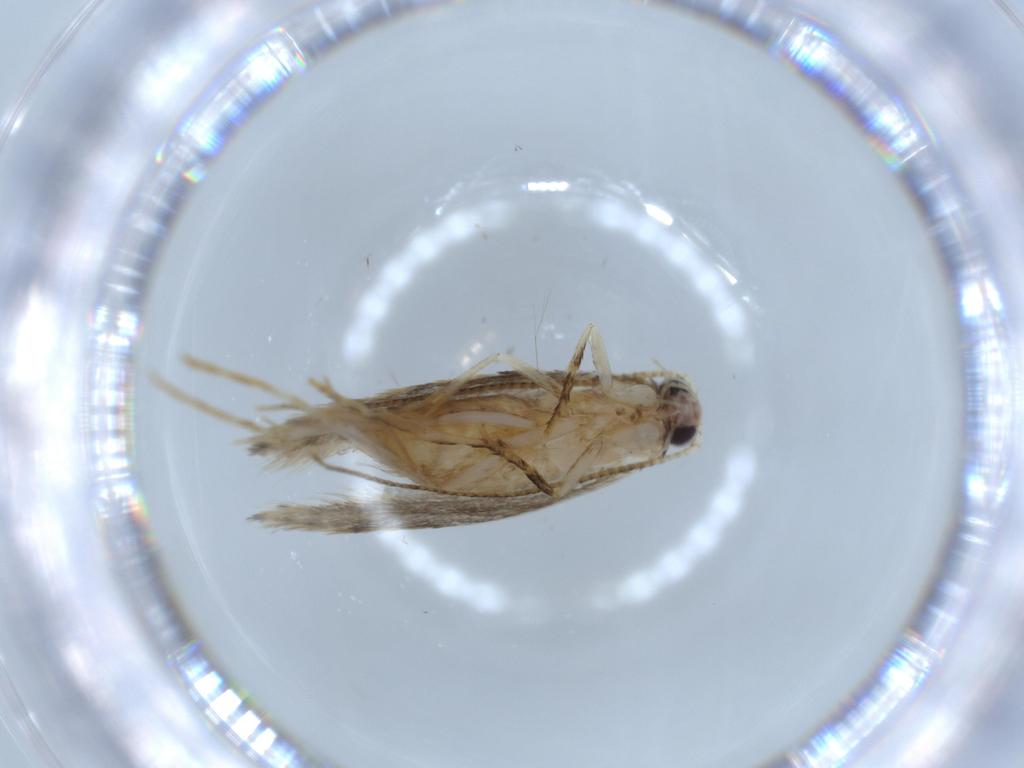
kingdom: Animalia
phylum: Arthropoda
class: Insecta
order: Lepidoptera
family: Tineidae
